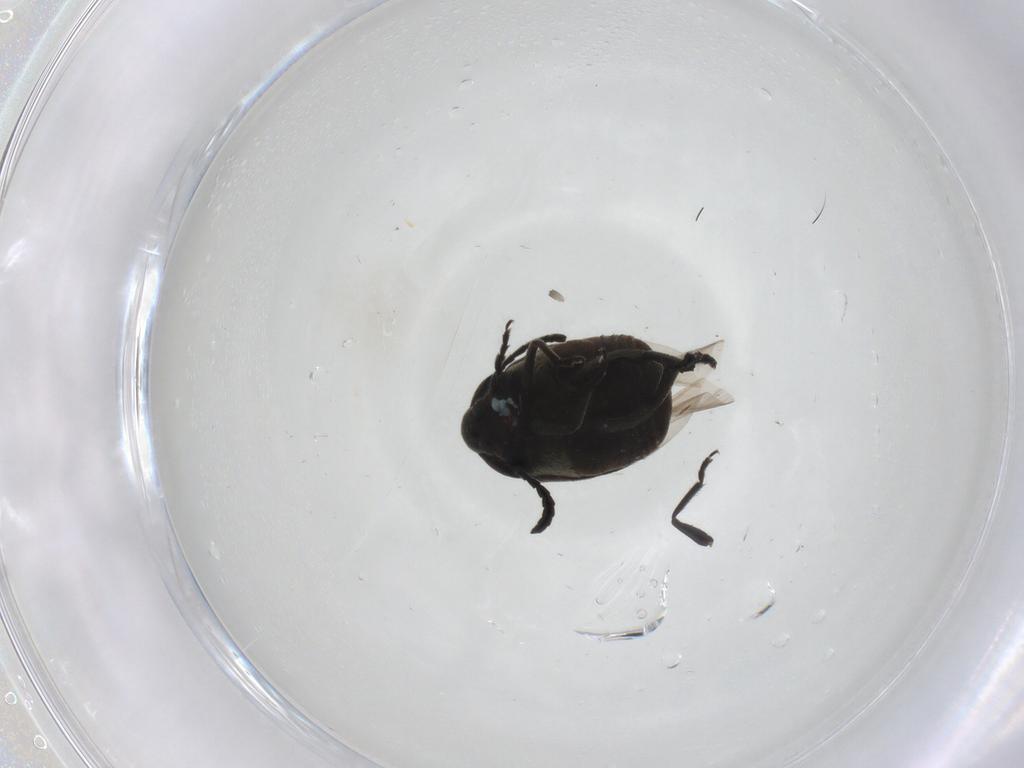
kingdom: Animalia
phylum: Arthropoda
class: Insecta
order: Coleoptera
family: Chrysomelidae
